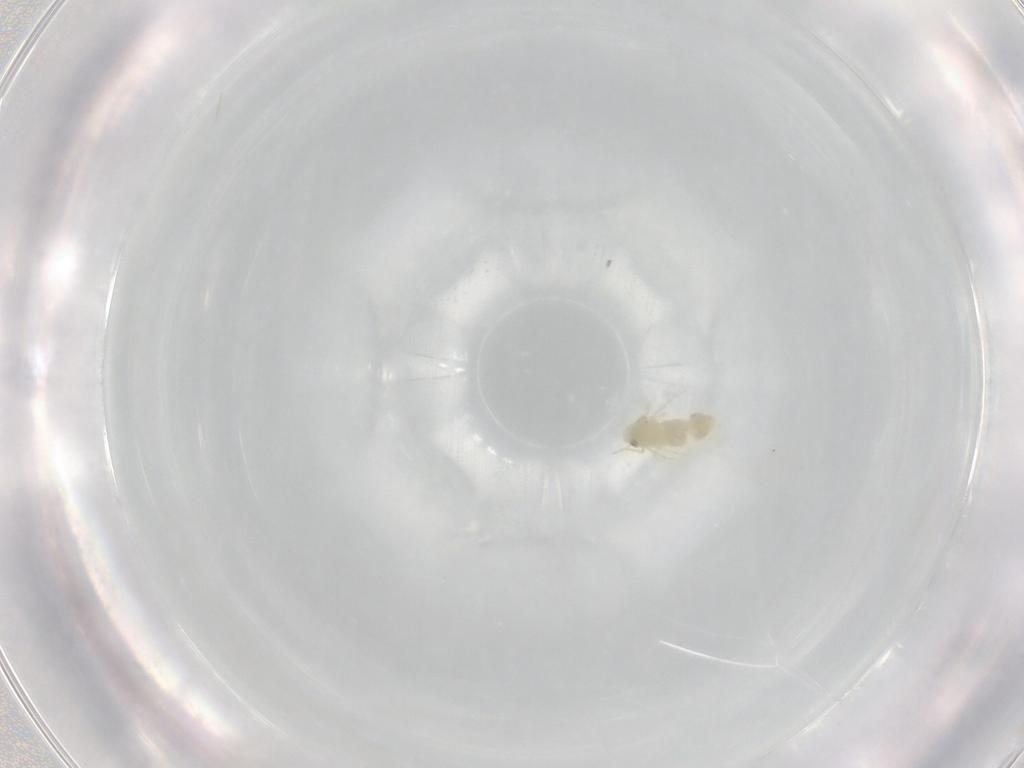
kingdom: Animalia
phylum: Arthropoda
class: Insecta
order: Hemiptera
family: Aleyrodidae
